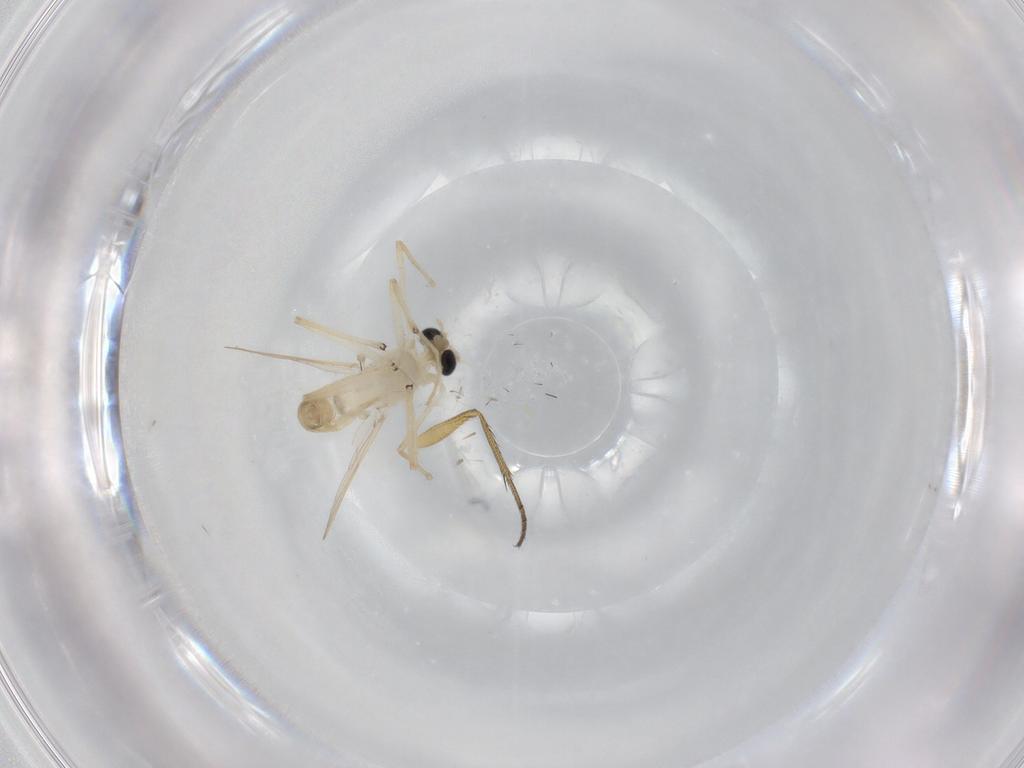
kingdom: Animalia
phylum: Arthropoda
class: Insecta
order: Diptera
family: Chironomidae
